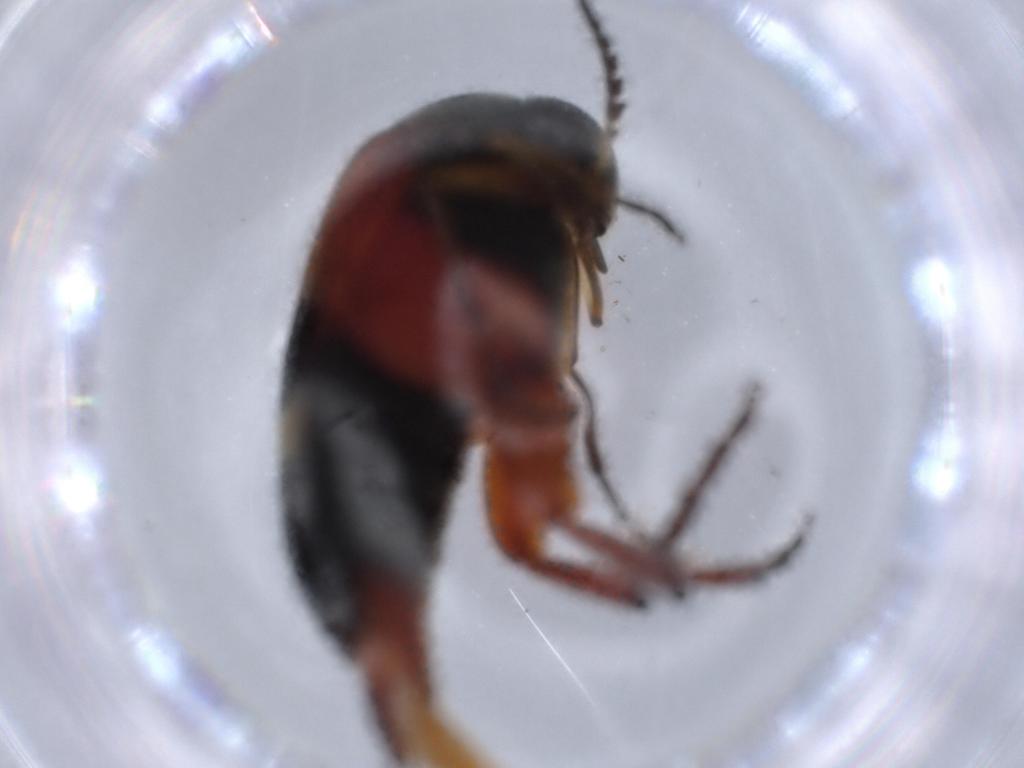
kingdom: Animalia
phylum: Arthropoda
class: Insecta
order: Coleoptera
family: Mordellidae
